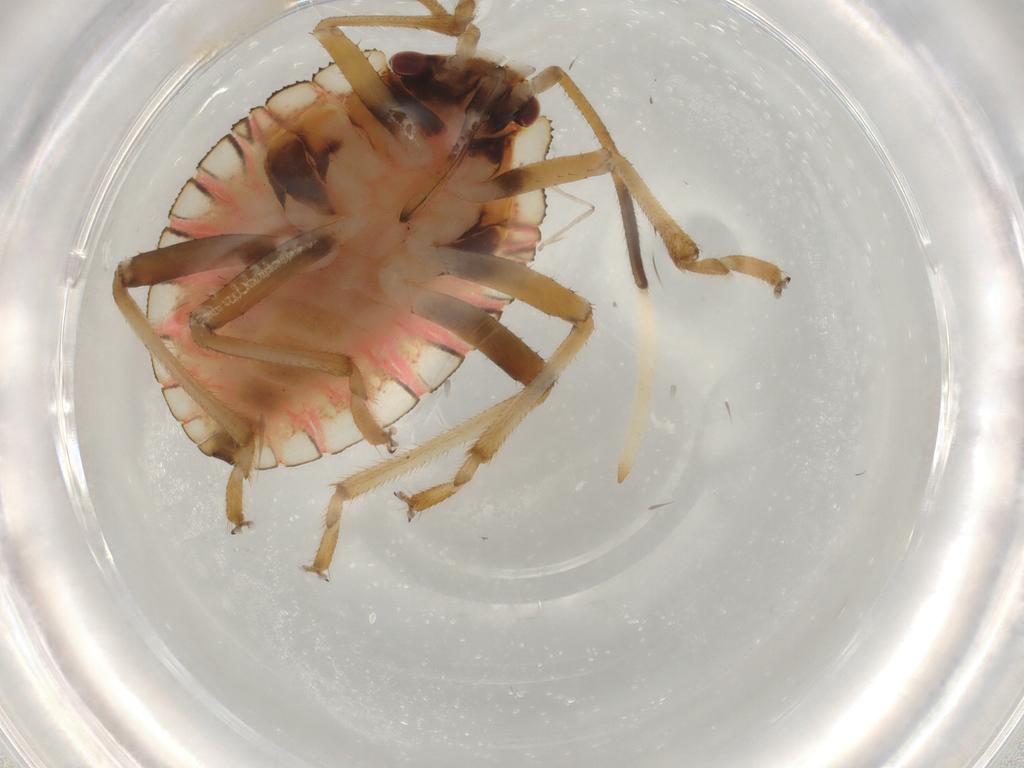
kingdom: Animalia
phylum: Arthropoda
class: Insecta
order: Hemiptera
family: Pentatomidae
